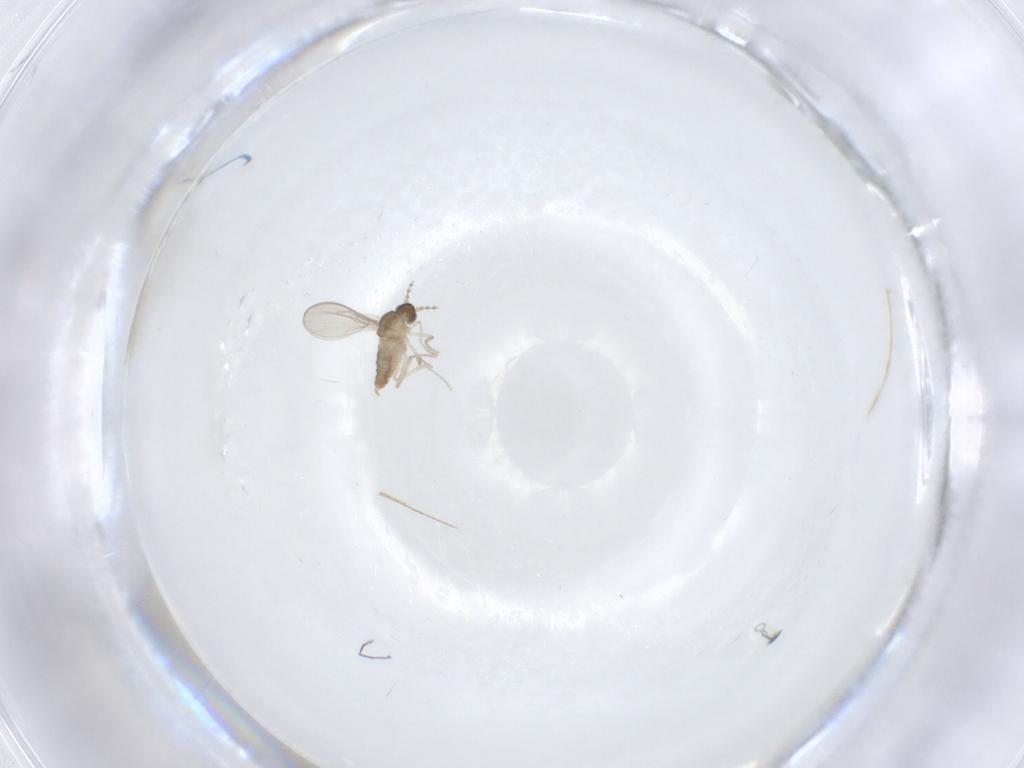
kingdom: Animalia
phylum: Arthropoda
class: Insecta
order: Diptera
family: Cecidomyiidae
